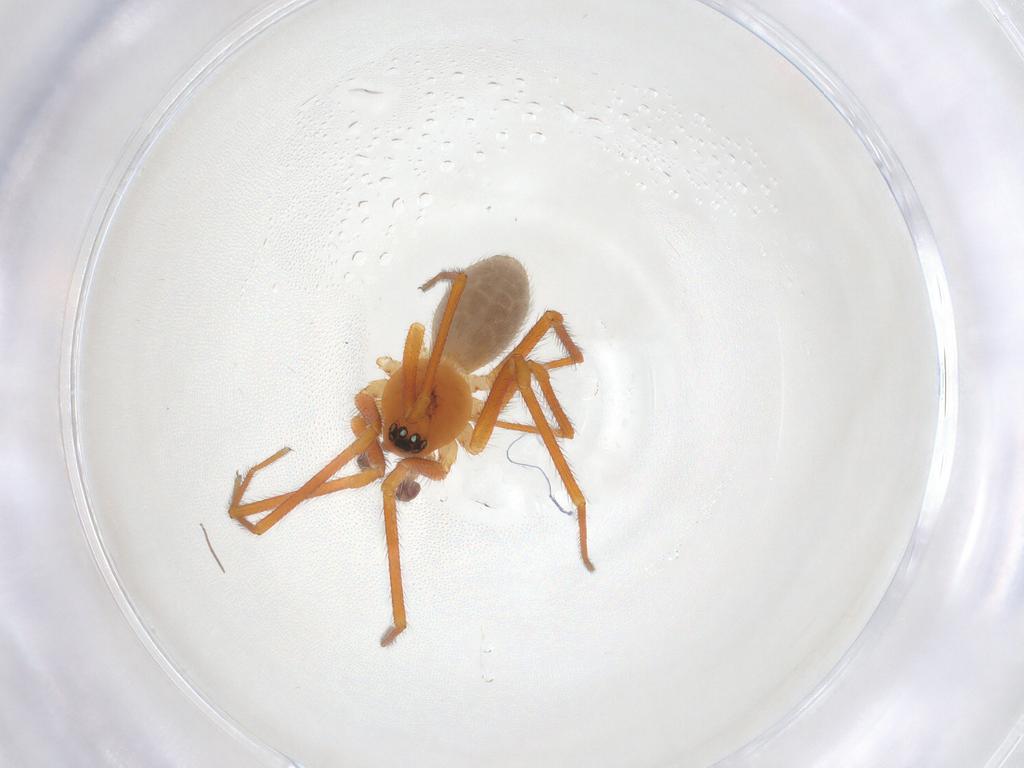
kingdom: Animalia
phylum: Arthropoda
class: Arachnida
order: Araneae
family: Linyphiidae
